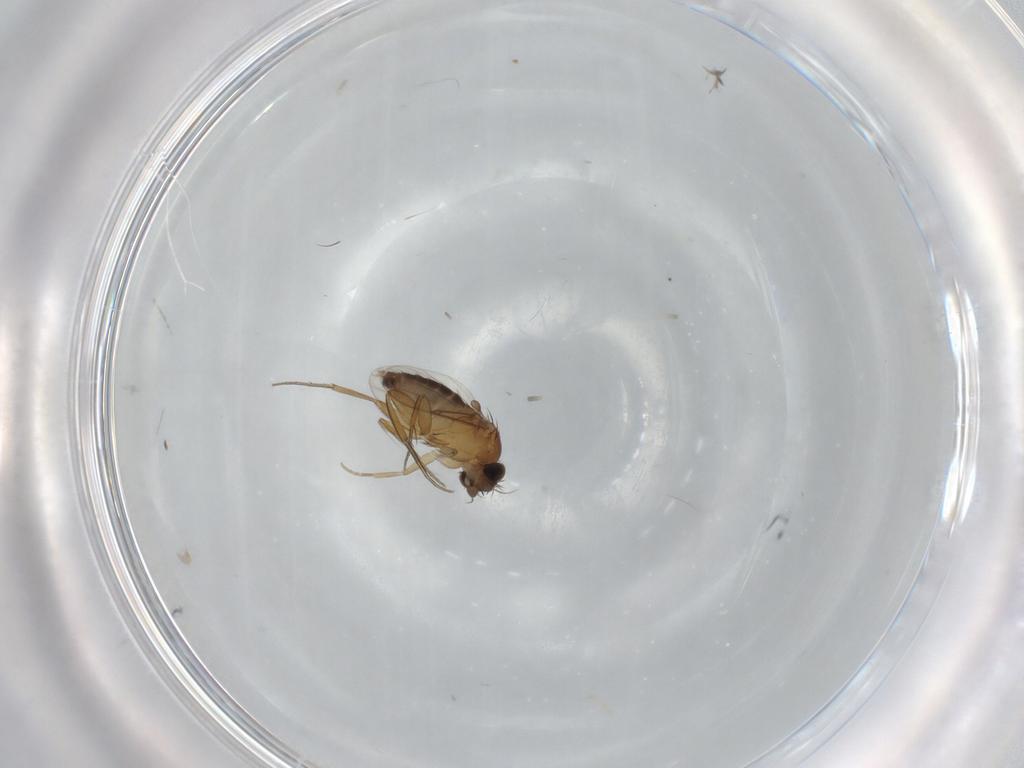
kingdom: Animalia
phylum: Arthropoda
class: Insecta
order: Diptera
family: Phoridae
